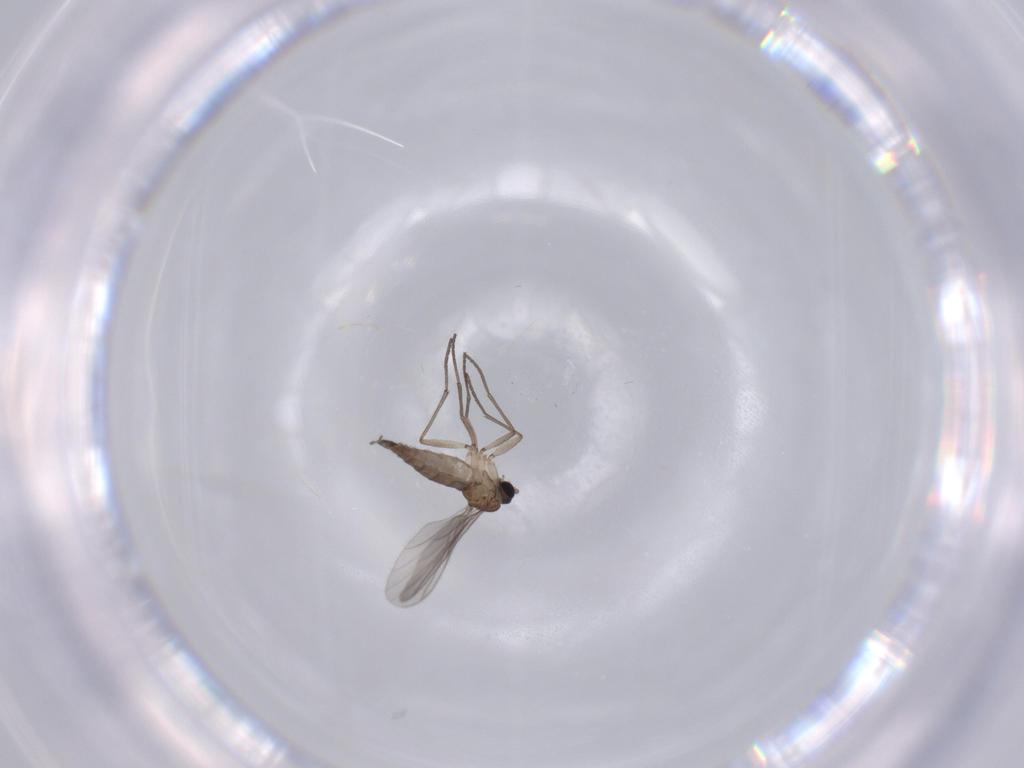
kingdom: Animalia
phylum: Arthropoda
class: Insecta
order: Diptera
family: Sciaridae
